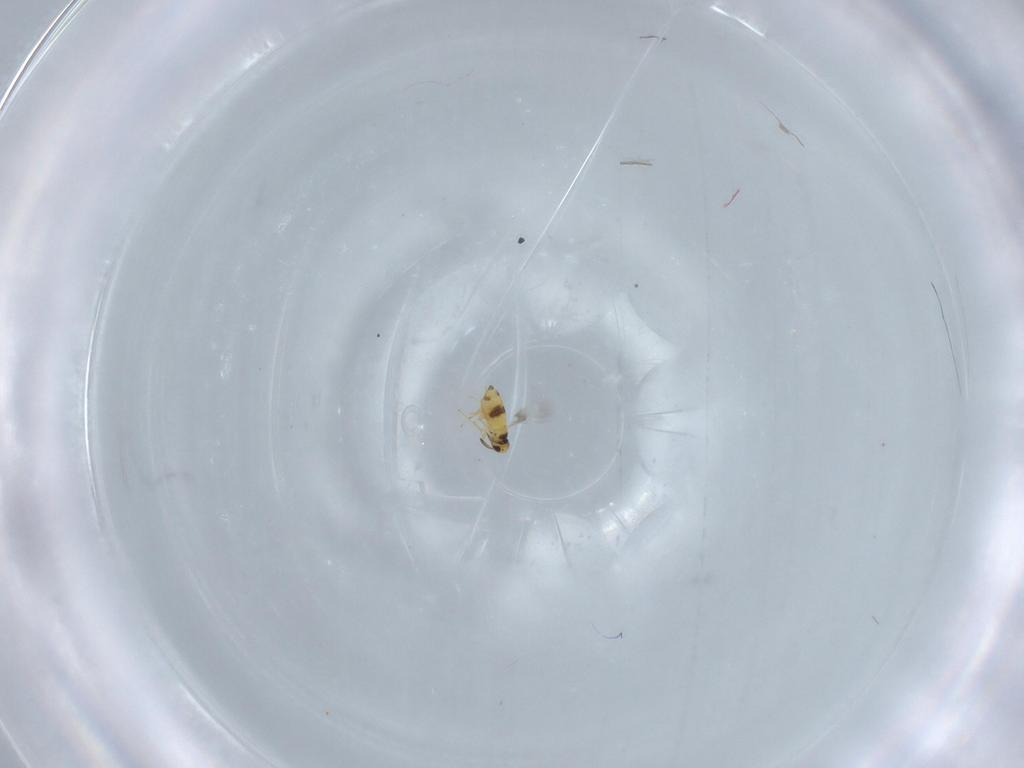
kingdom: Animalia
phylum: Arthropoda
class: Insecta
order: Hymenoptera
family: Signiphoridae
